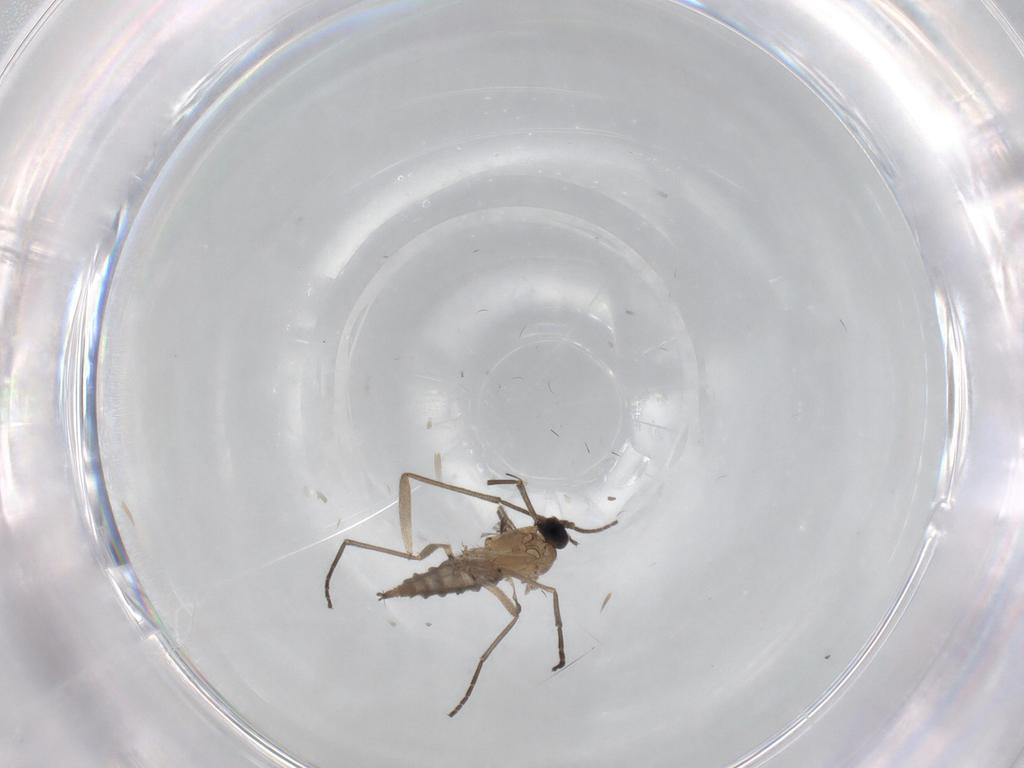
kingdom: Animalia
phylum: Arthropoda
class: Insecta
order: Diptera
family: Sciaridae
